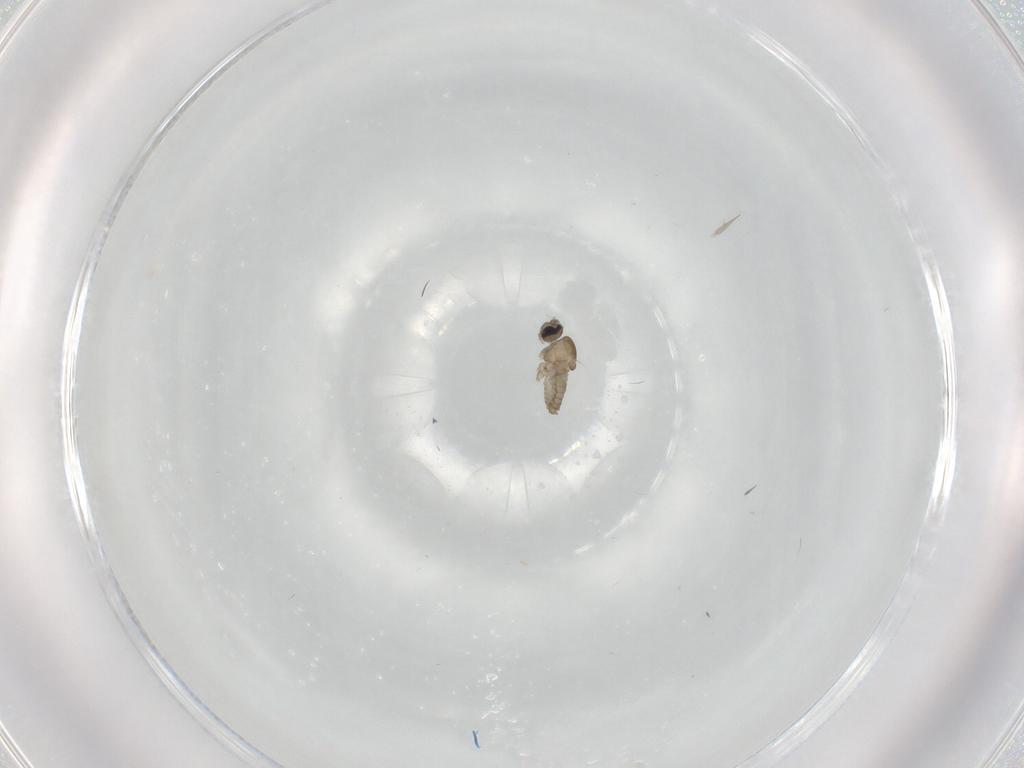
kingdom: Animalia
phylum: Arthropoda
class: Insecta
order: Diptera
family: Cecidomyiidae
